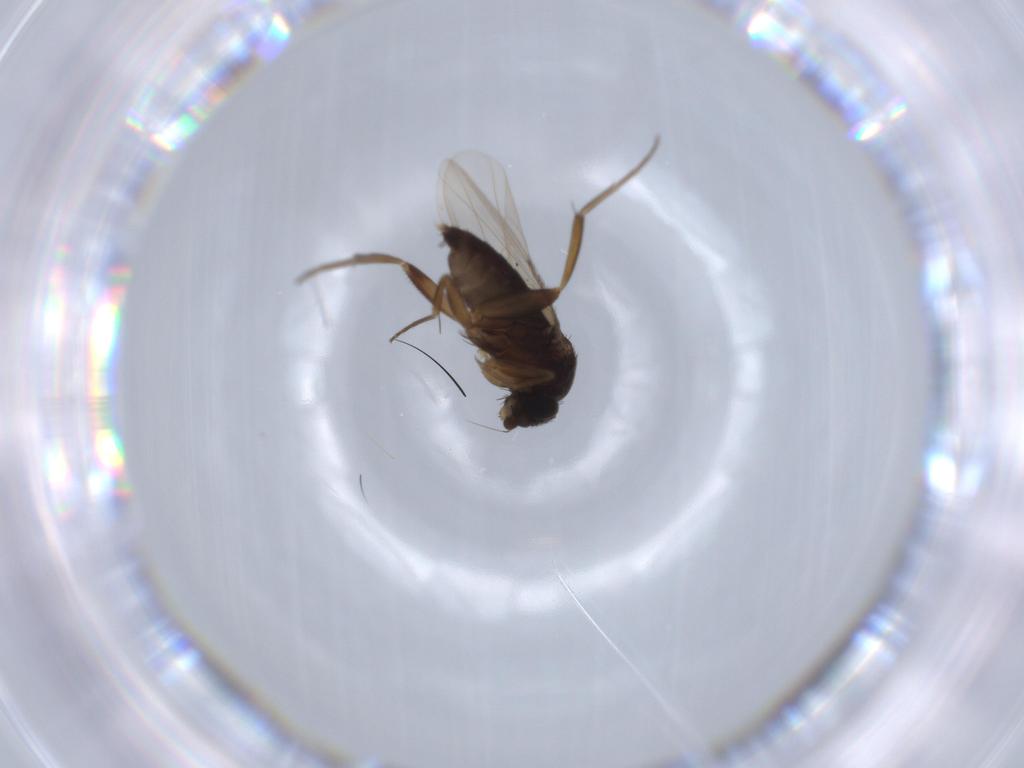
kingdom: Animalia
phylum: Arthropoda
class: Insecta
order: Diptera
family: Phoridae
